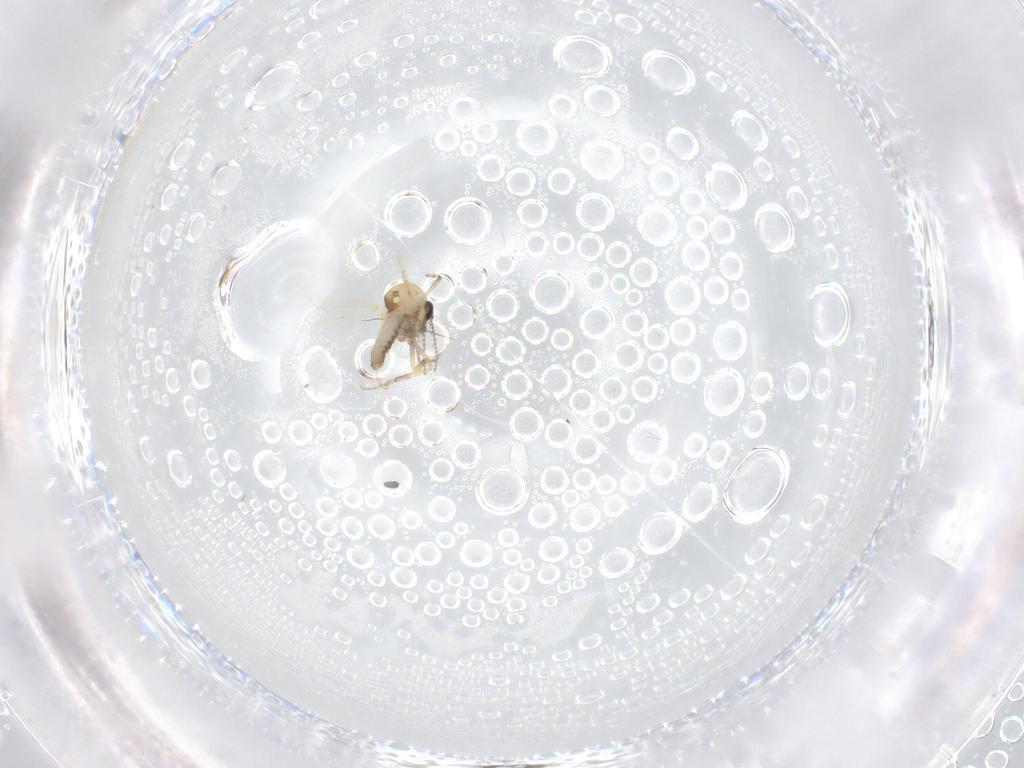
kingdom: Animalia
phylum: Arthropoda
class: Insecta
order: Diptera
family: Ceratopogonidae
